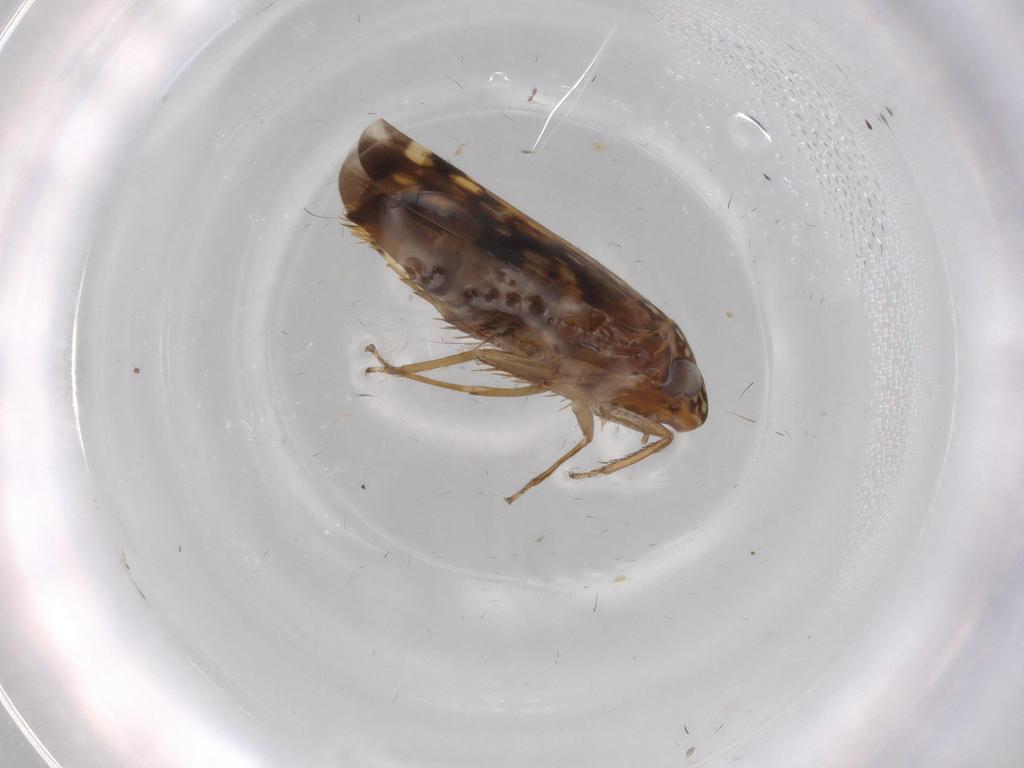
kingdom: Animalia
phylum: Arthropoda
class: Insecta
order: Hemiptera
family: Cicadellidae
